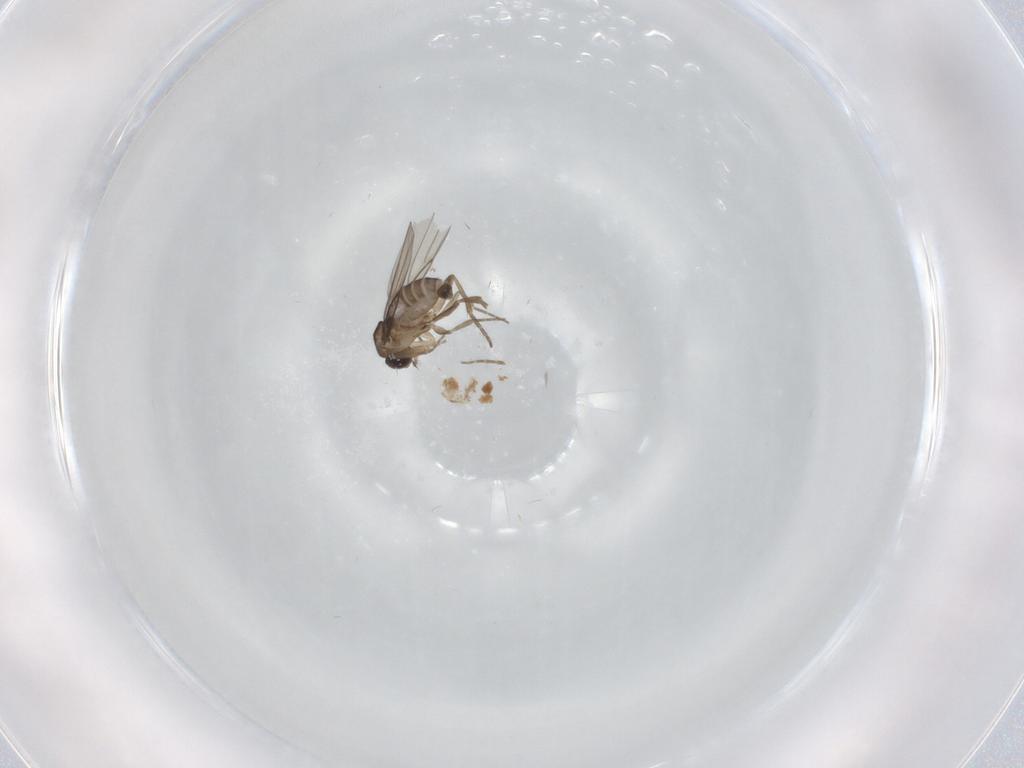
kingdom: Animalia
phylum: Arthropoda
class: Insecta
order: Diptera
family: Phoridae
